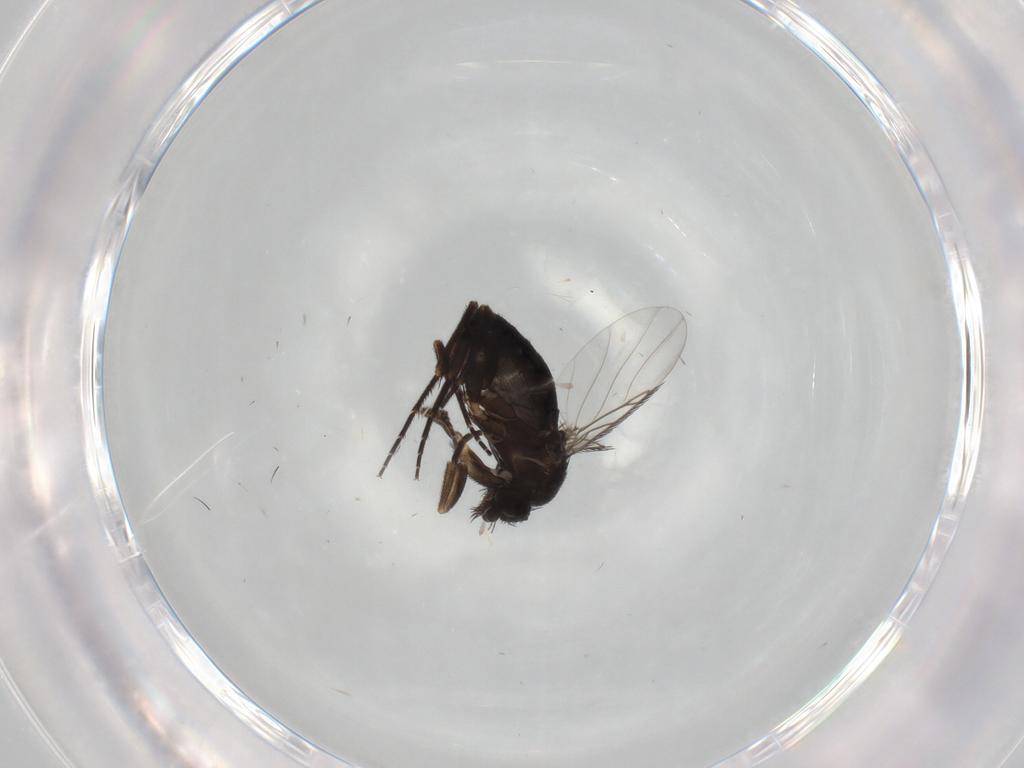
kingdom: Animalia
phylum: Arthropoda
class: Insecta
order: Diptera
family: Phoridae
